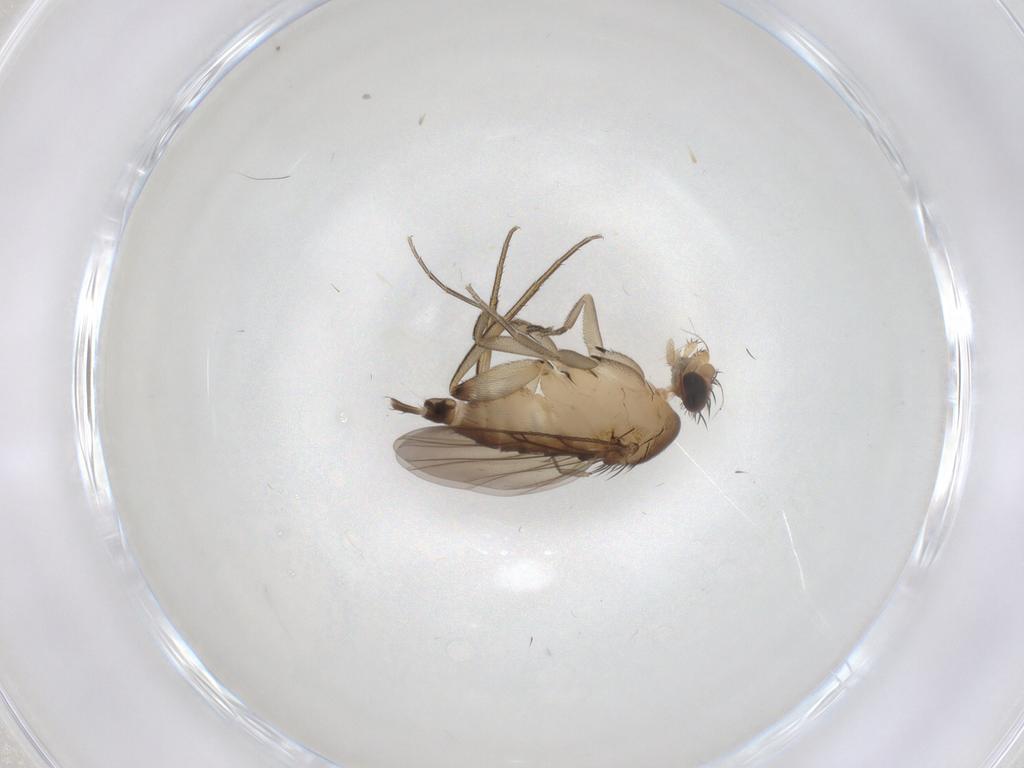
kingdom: Animalia
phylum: Arthropoda
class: Insecta
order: Diptera
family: Phoridae
